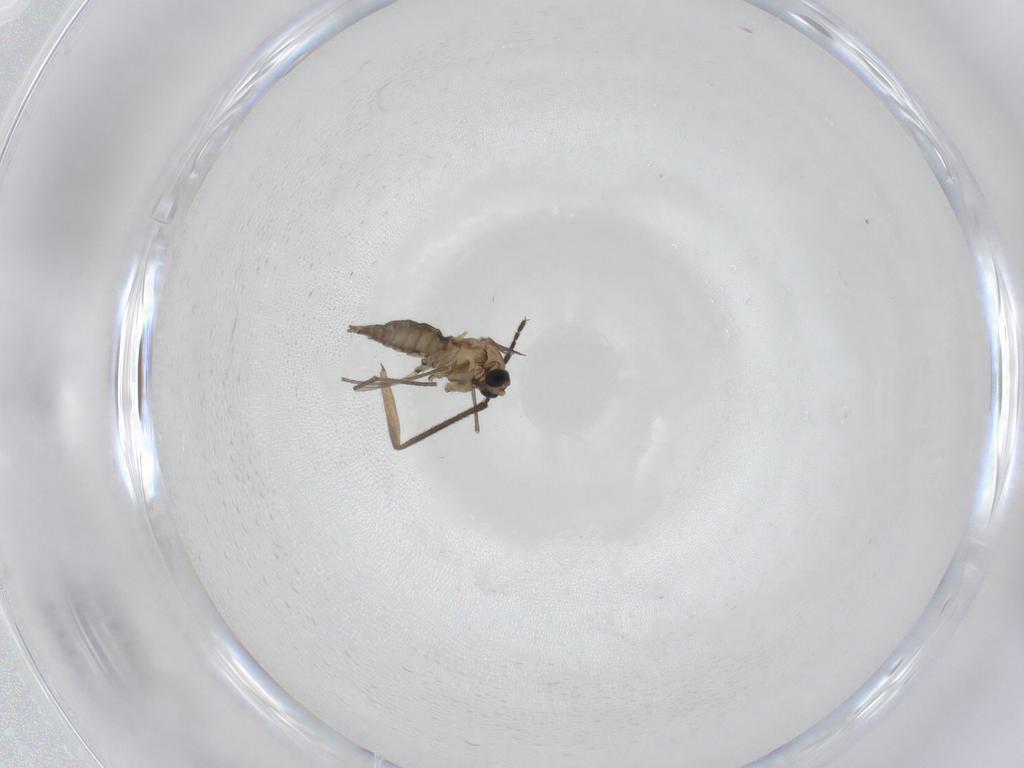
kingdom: Animalia
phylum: Arthropoda
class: Insecta
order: Diptera
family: Sciaridae
